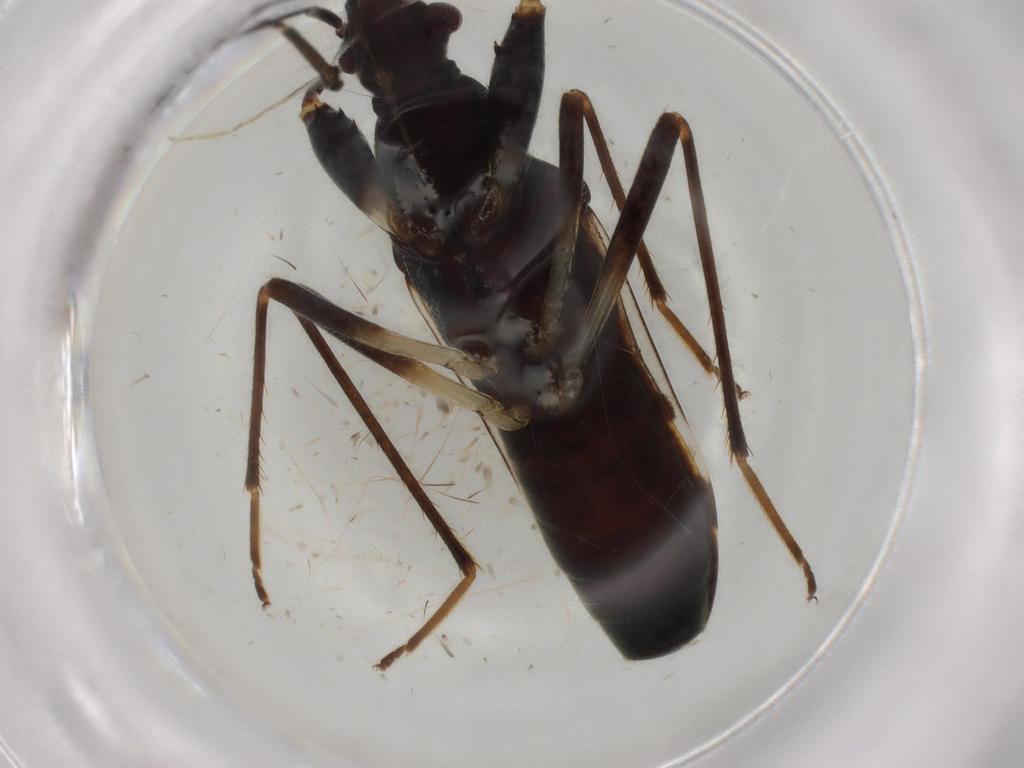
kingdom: Animalia
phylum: Arthropoda
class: Insecta
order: Hemiptera
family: Rhyparochromidae
